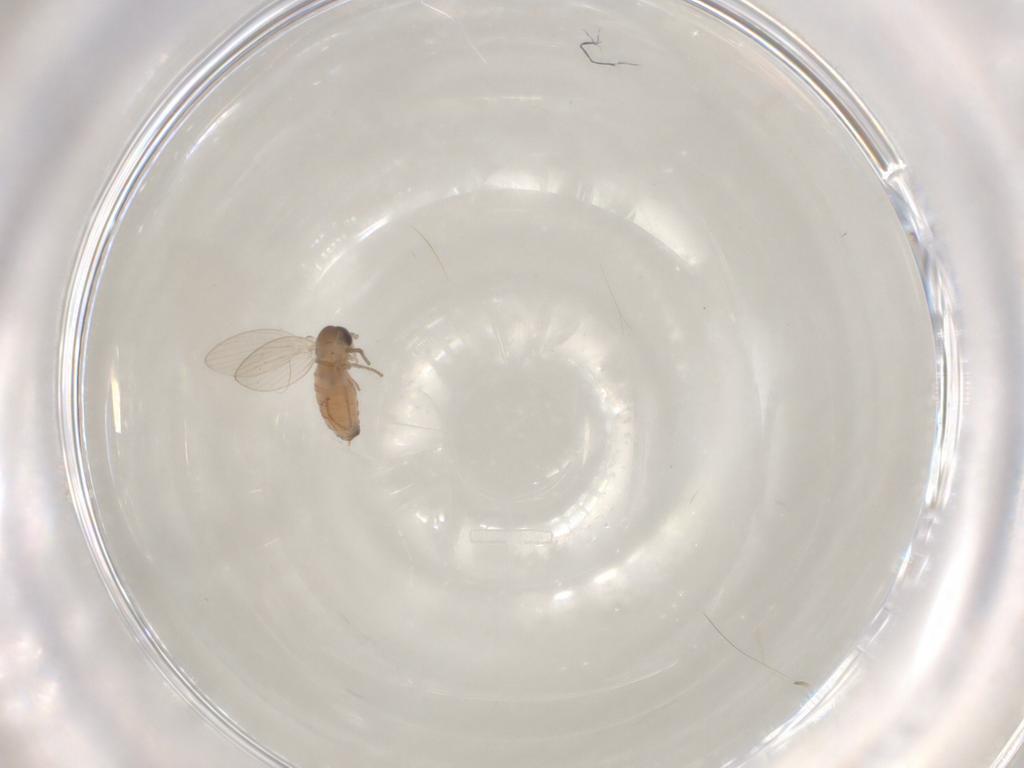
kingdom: Animalia
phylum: Arthropoda
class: Insecta
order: Diptera
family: Psychodidae
